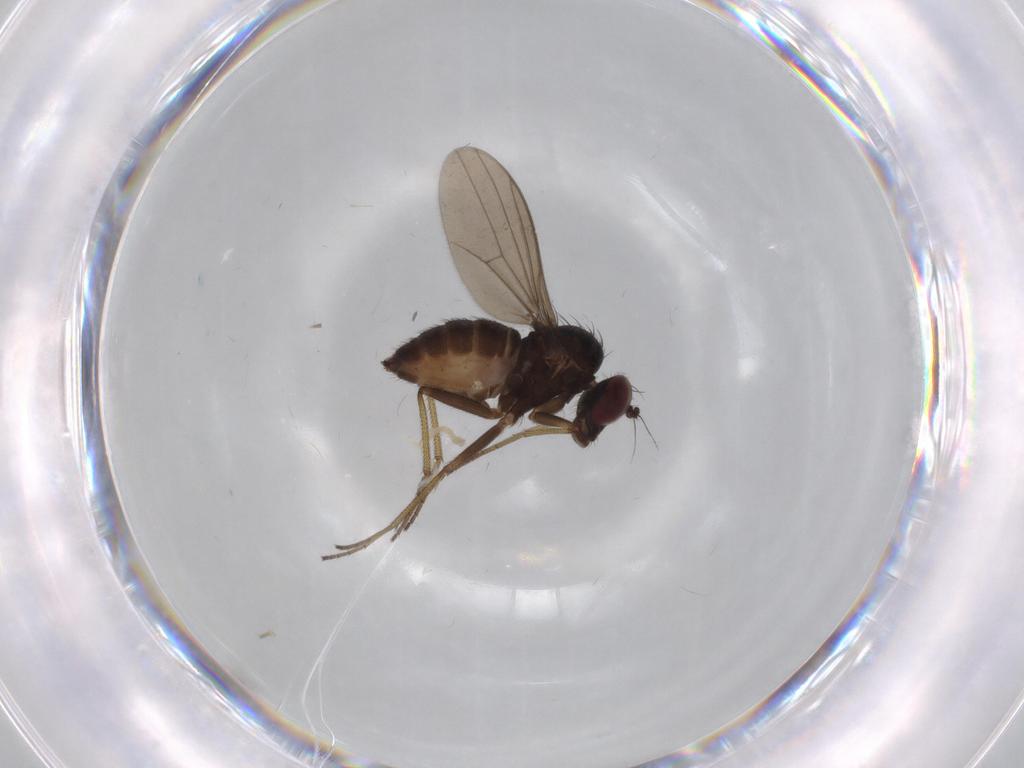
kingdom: Animalia
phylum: Arthropoda
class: Insecta
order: Diptera
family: Dolichopodidae
